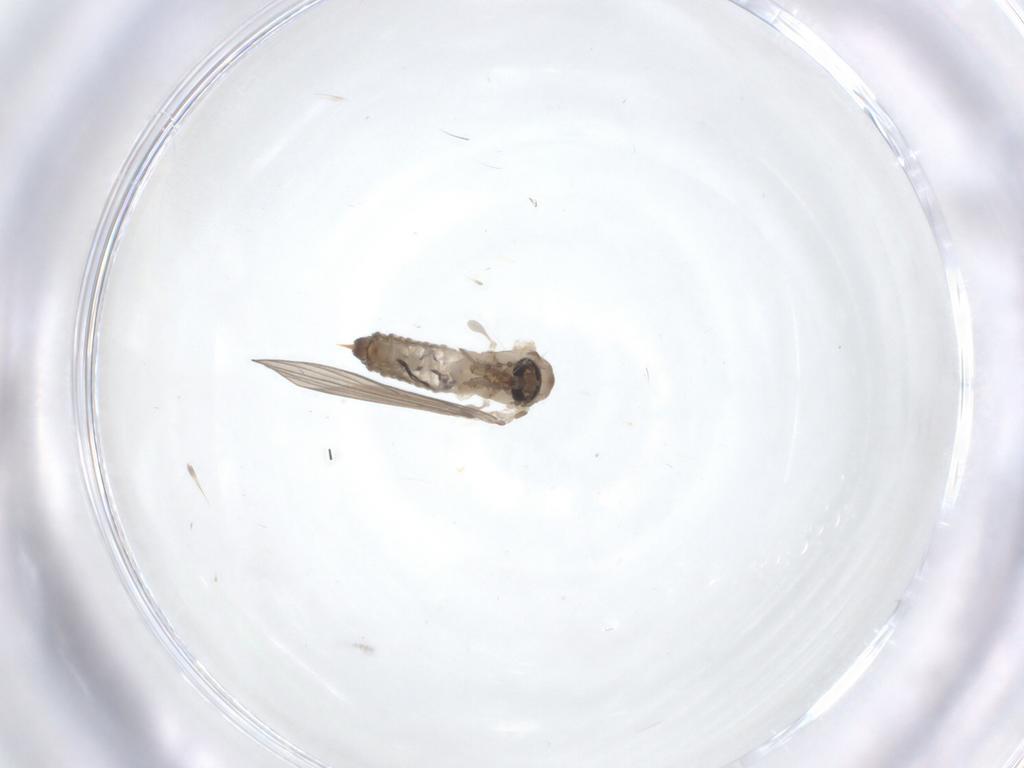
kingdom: Animalia
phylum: Arthropoda
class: Insecta
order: Diptera
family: Psychodidae
